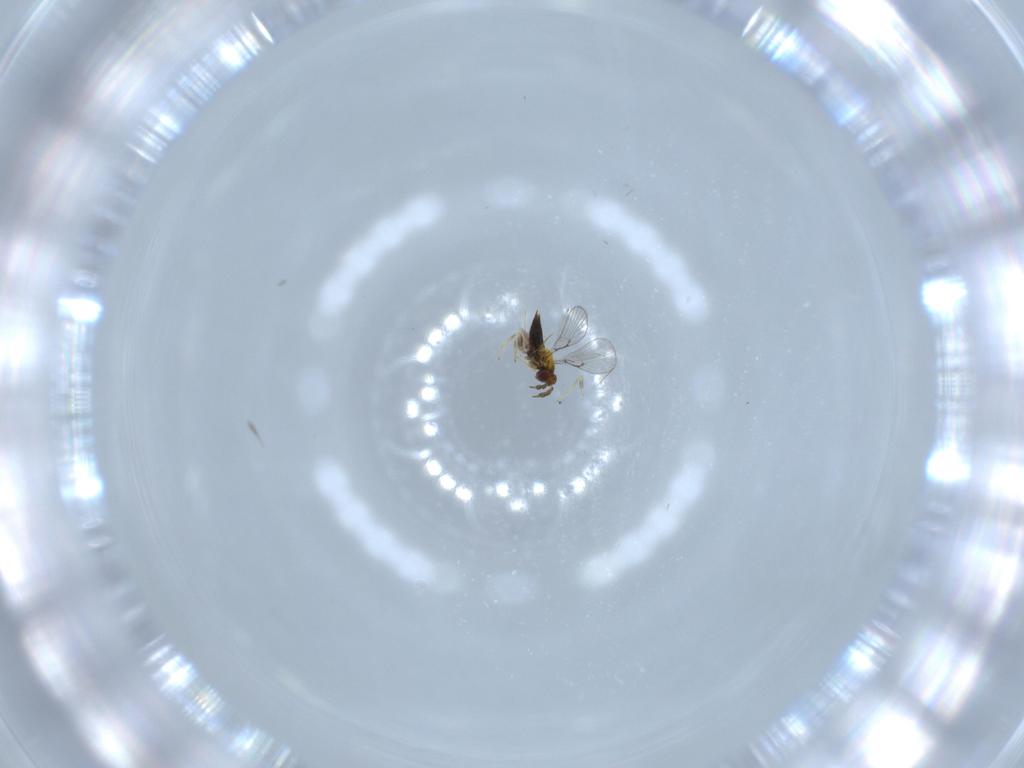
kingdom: Animalia
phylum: Arthropoda
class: Insecta
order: Hymenoptera
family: Trichogrammatidae
